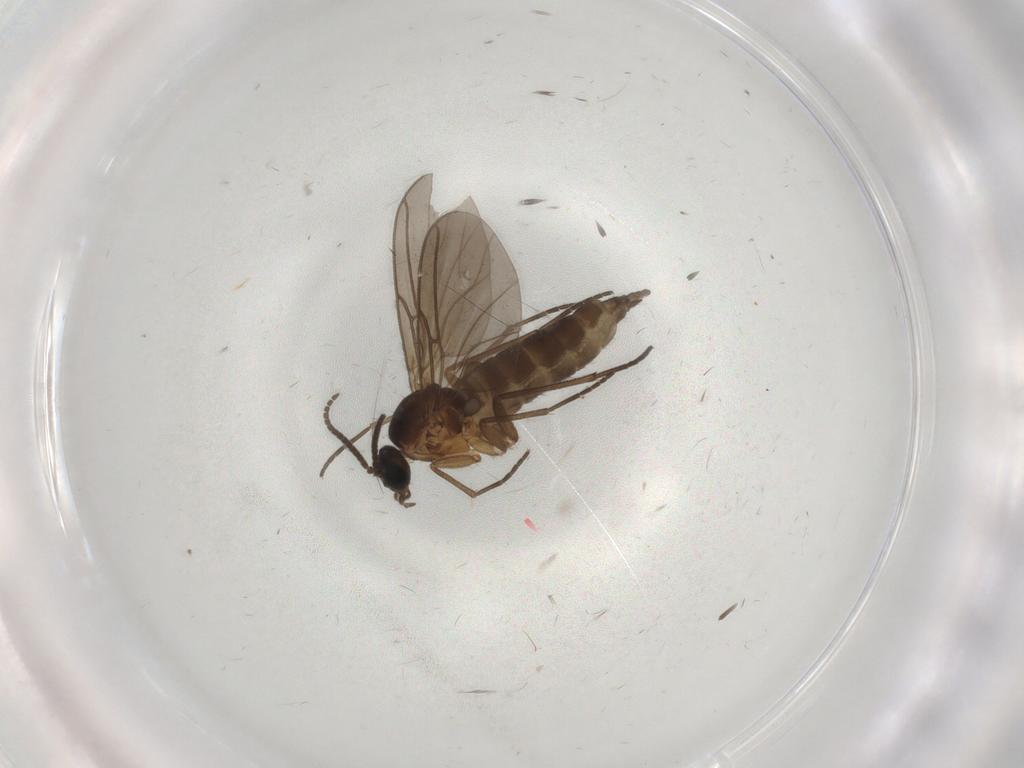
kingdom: Animalia
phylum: Arthropoda
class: Insecta
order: Diptera
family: Sciaridae
